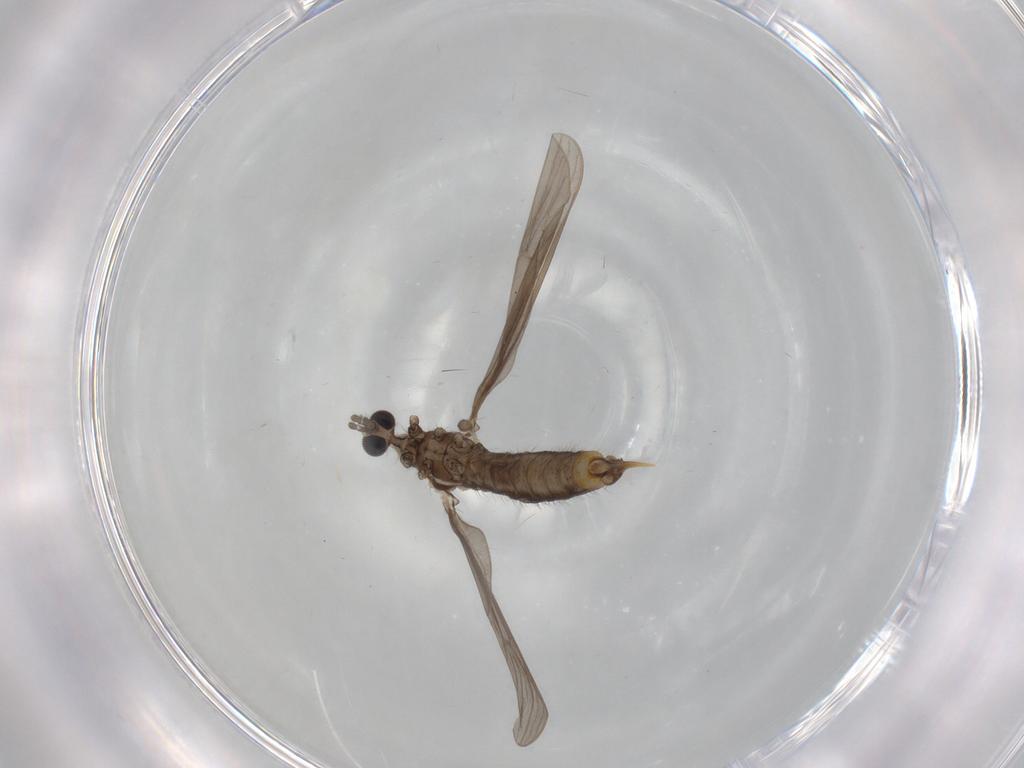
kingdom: Animalia
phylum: Arthropoda
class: Insecta
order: Diptera
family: Limoniidae
